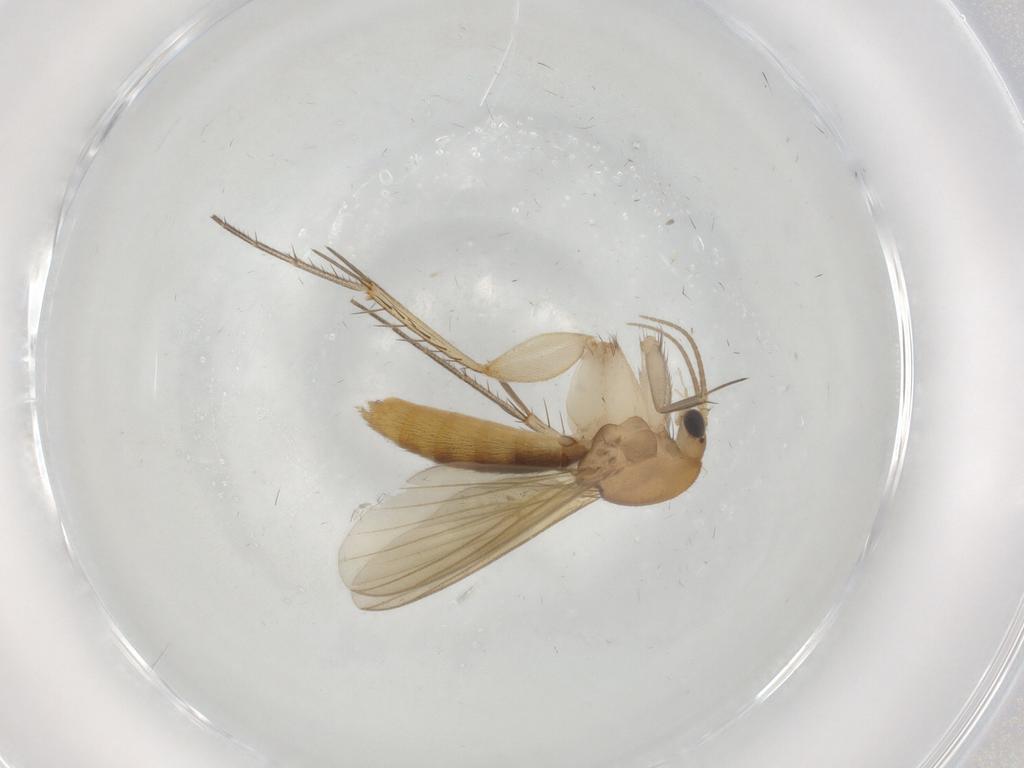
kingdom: Animalia
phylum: Arthropoda
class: Insecta
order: Diptera
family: Mycetophilidae
